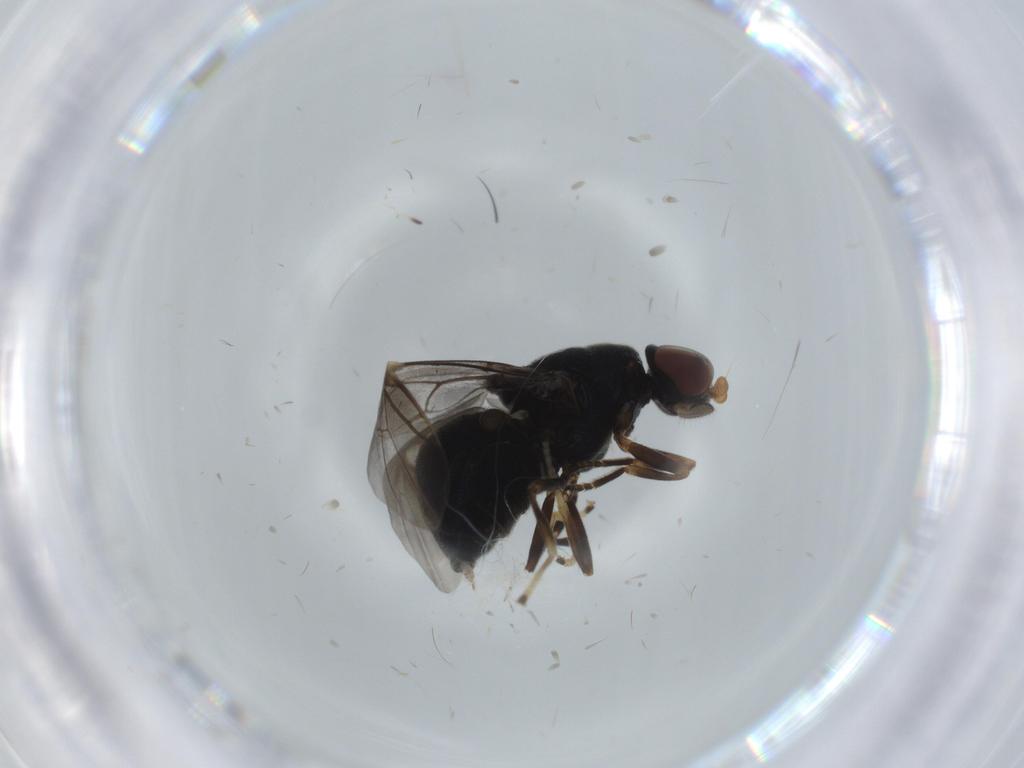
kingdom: Animalia
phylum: Arthropoda
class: Insecta
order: Diptera
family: Stratiomyidae
